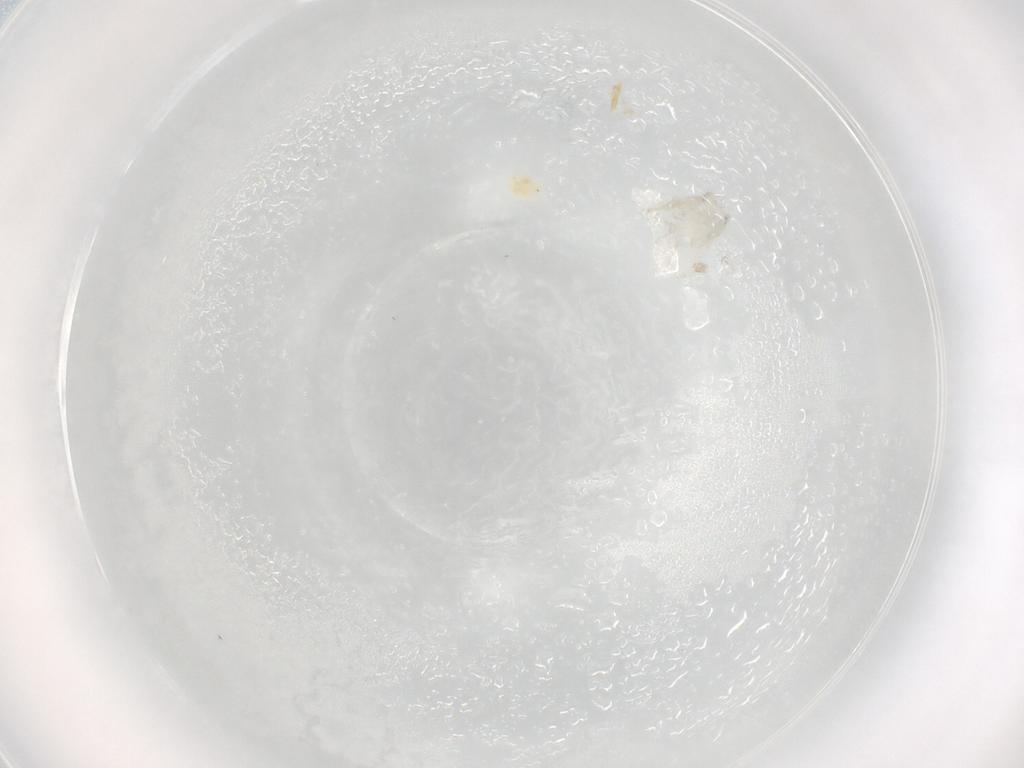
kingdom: Animalia
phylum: Arthropoda
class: Insecta
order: Hymenoptera
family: Halictidae
